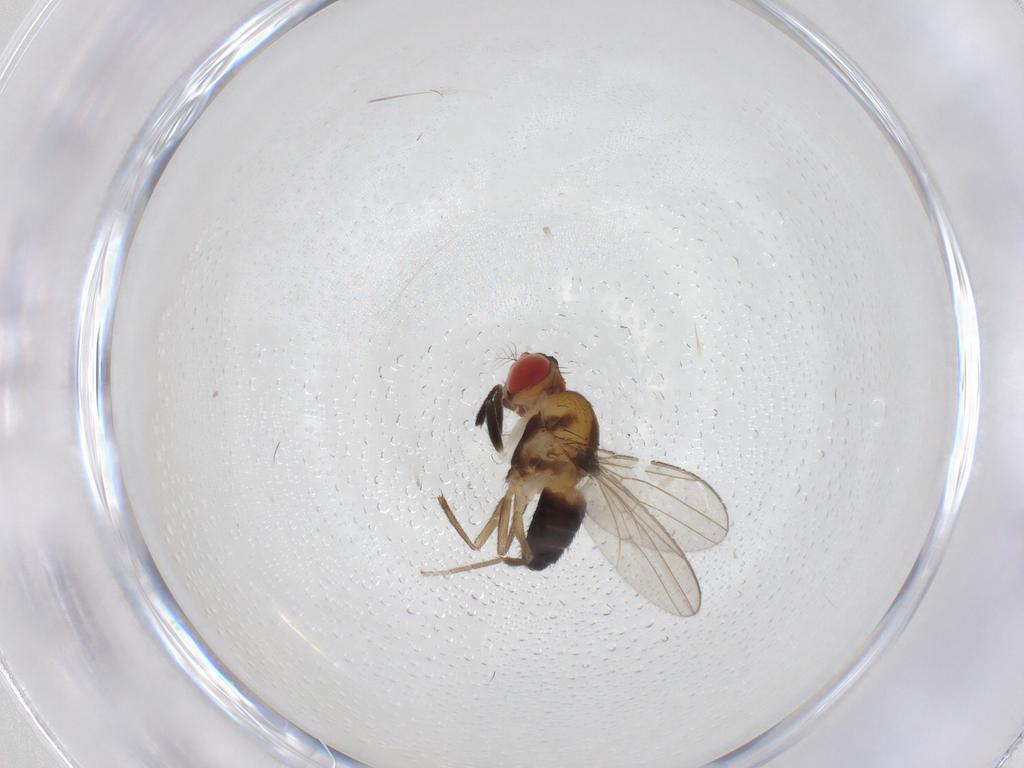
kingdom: Animalia
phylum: Arthropoda
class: Insecta
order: Diptera
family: Drosophilidae
